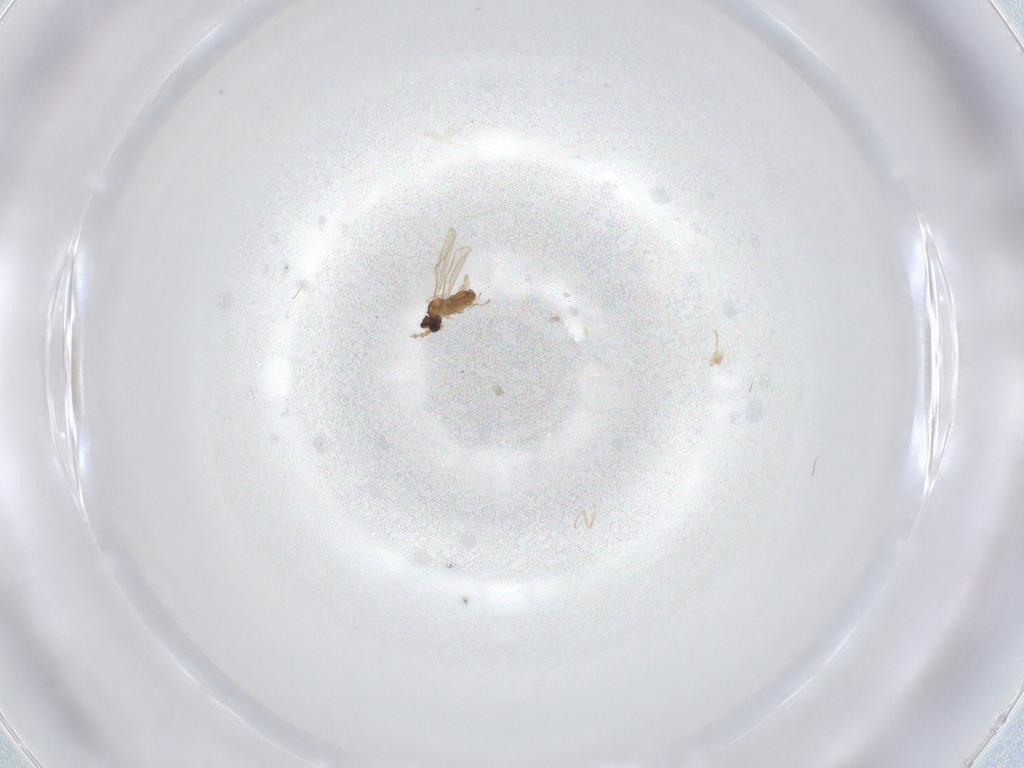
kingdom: Animalia
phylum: Arthropoda
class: Insecta
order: Diptera
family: Cecidomyiidae
